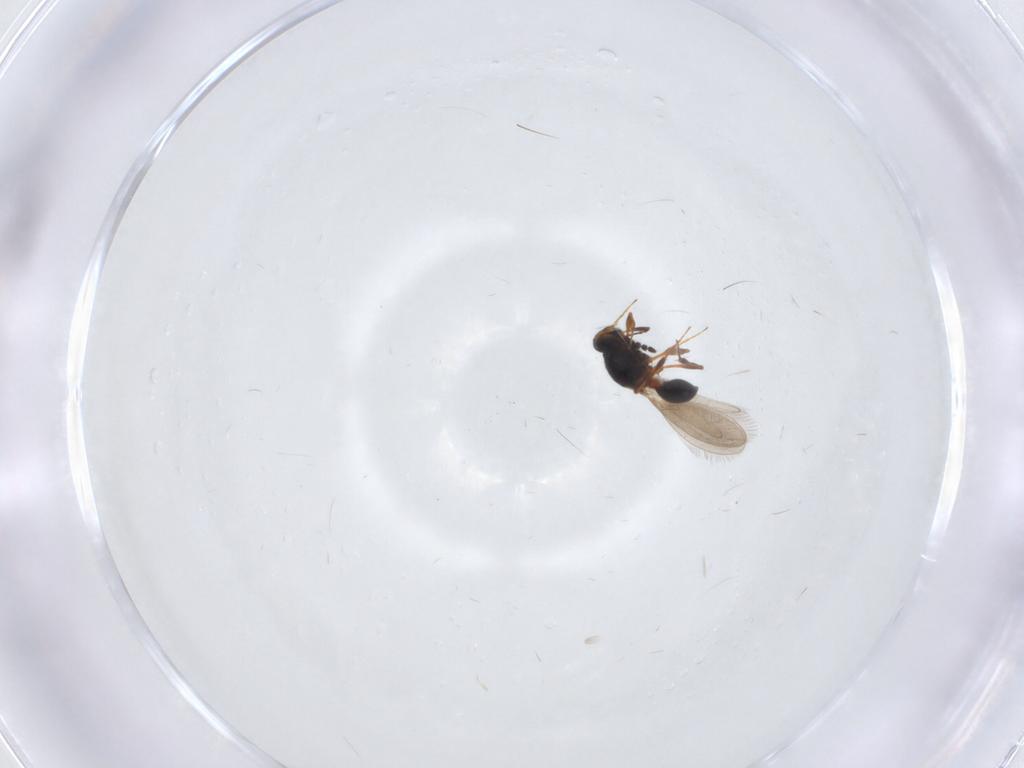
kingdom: Animalia
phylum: Arthropoda
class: Insecta
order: Hymenoptera
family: Platygastridae
